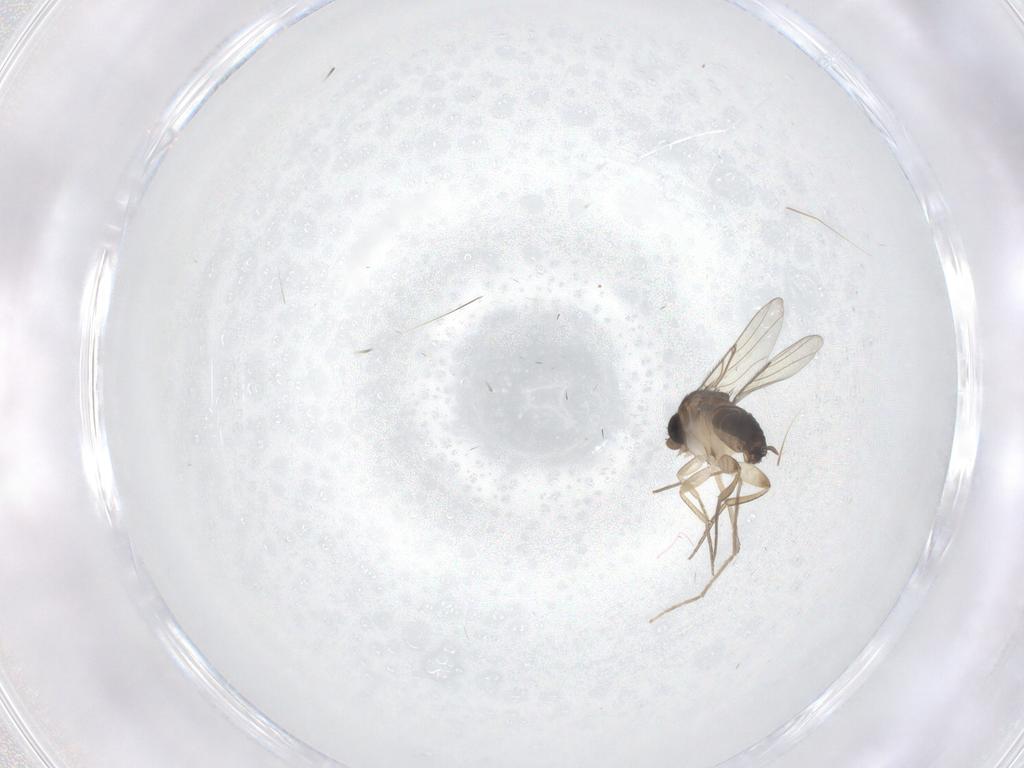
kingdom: Animalia
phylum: Arthropoda
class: Insecta
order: Diptera
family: Chironomidae
